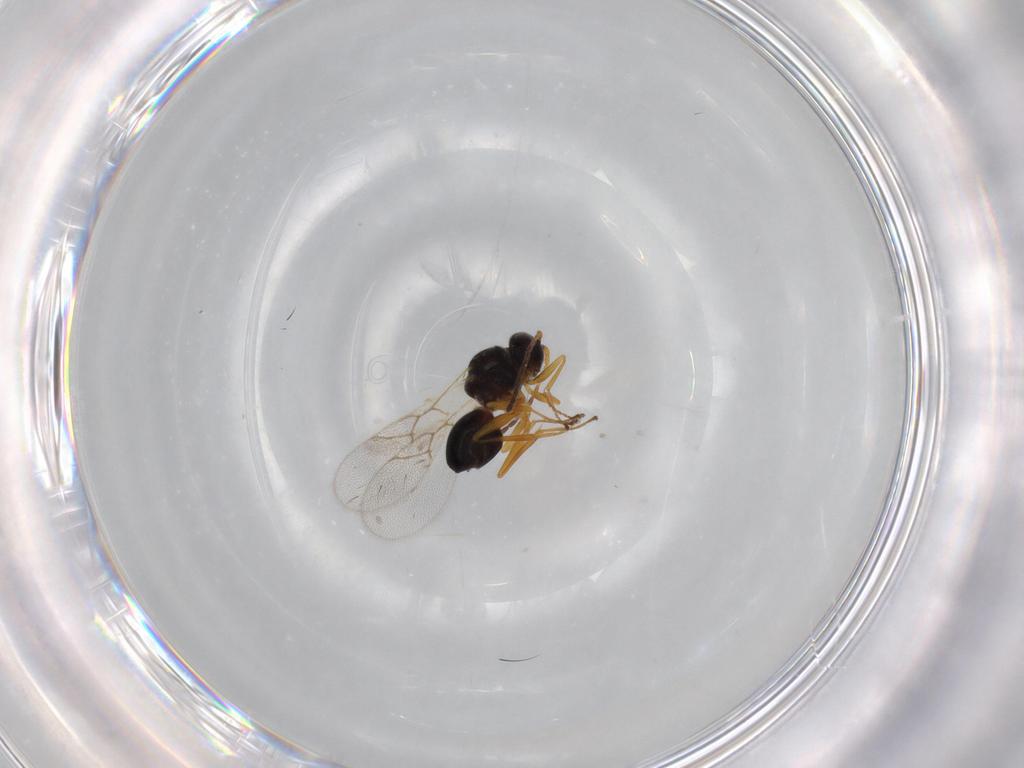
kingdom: Animalia
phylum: Arthropoda
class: Insecta
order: Hymenoptera
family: Figitidae
